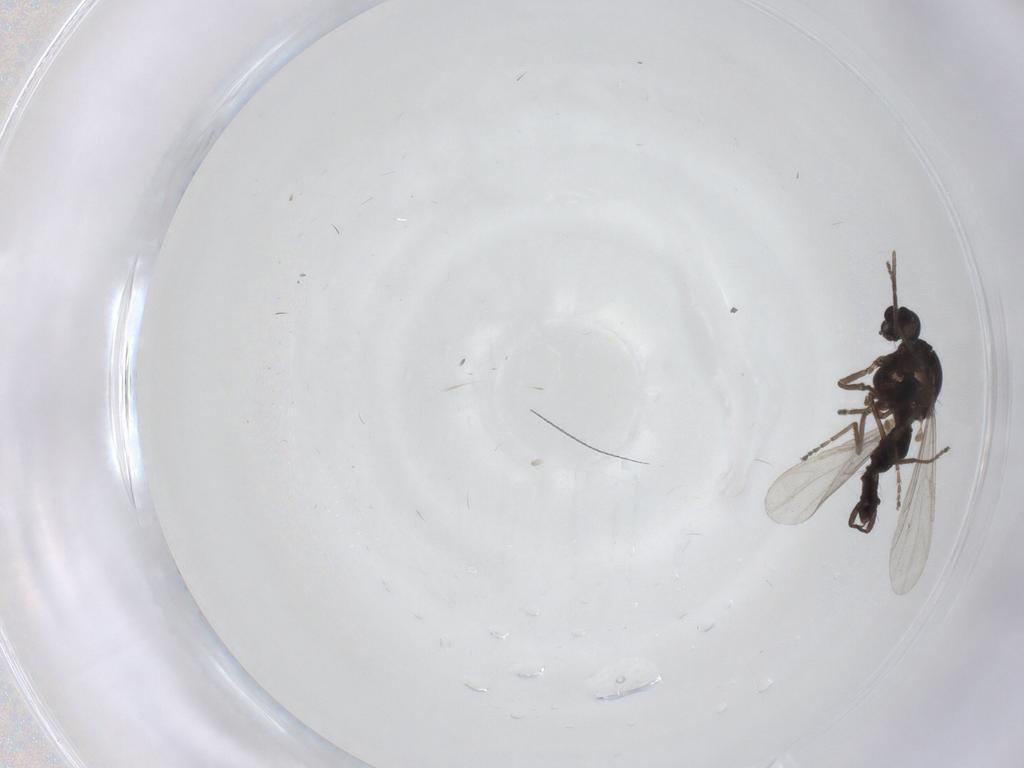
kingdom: Animalia
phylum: Arthropoda
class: Insecta
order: Diptera
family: Ceratopogonidae
